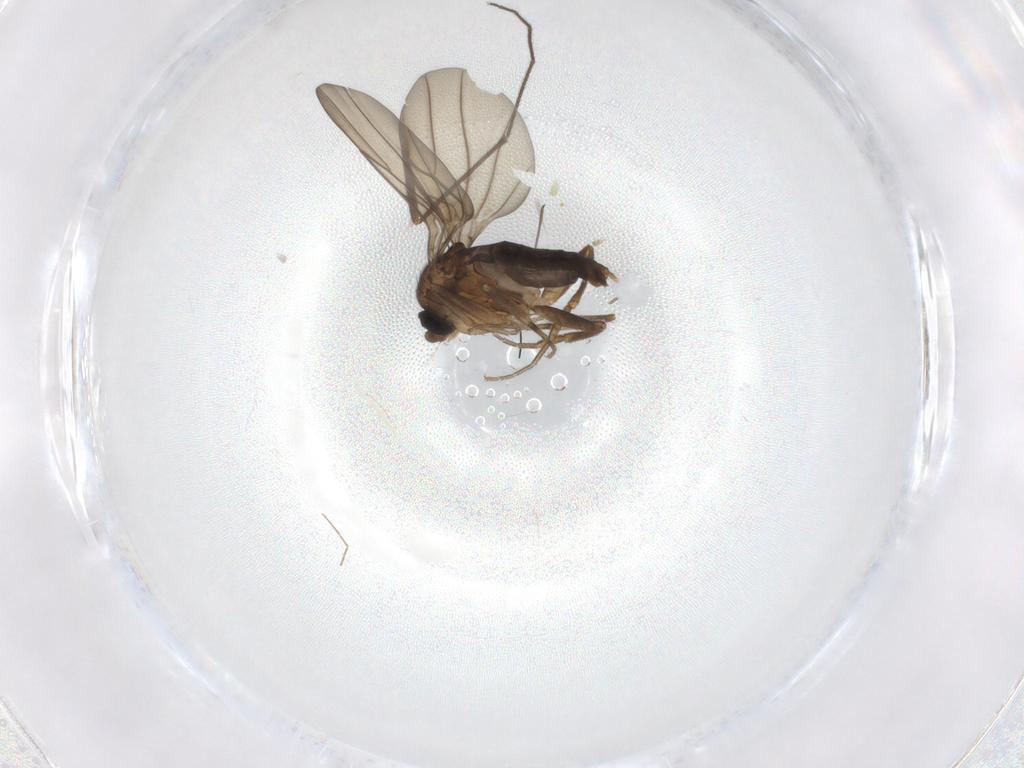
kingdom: Animalia
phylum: Arthropoda
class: Insecta
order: Diptera
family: Chironomidae
